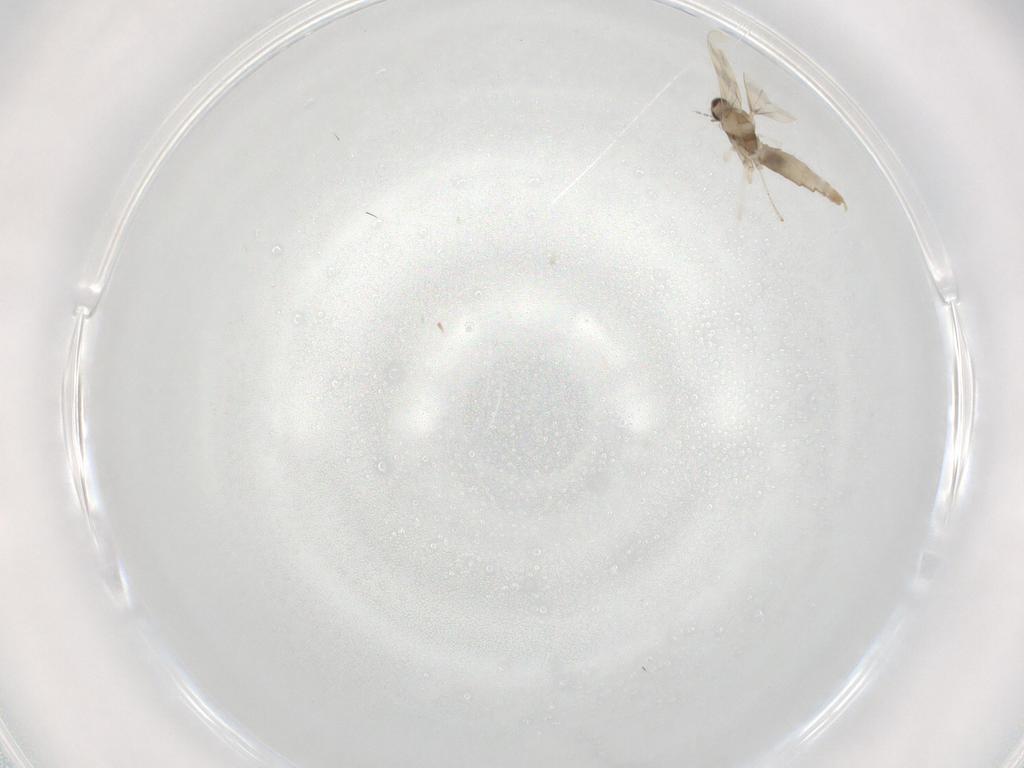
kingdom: Animalia
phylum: Arthropoda
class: Insecta
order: Diptera
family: Cecidomyiidae
